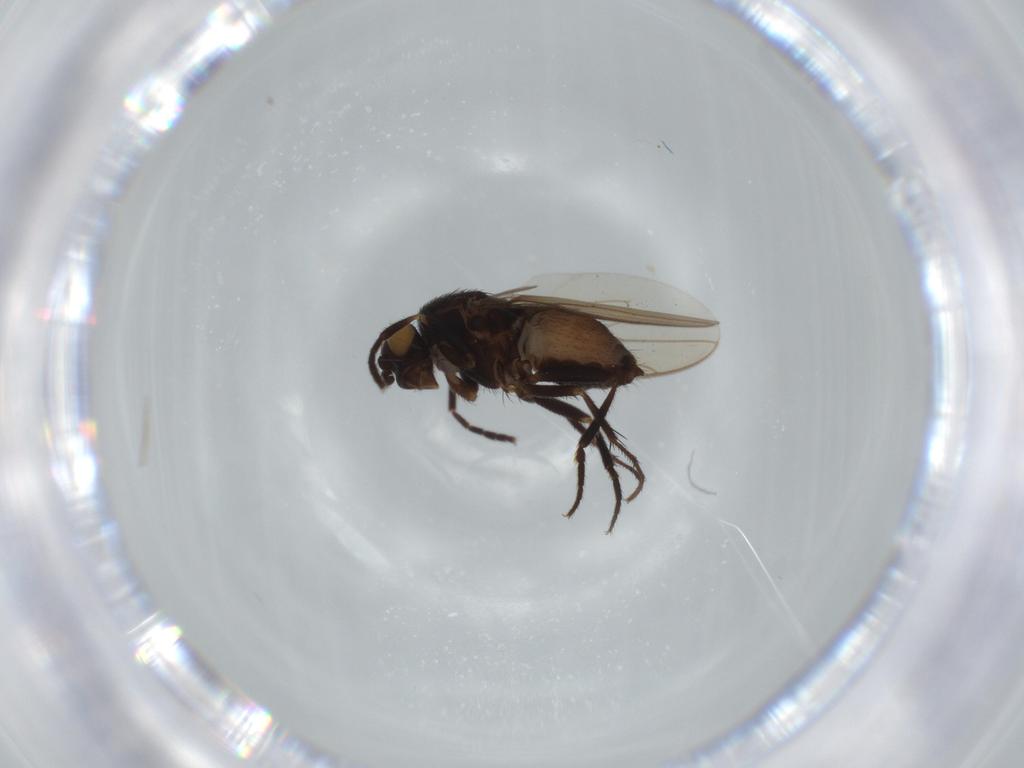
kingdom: Animalia
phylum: Arthropoda
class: Insecta
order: Diptera
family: Sphaeroceridae
